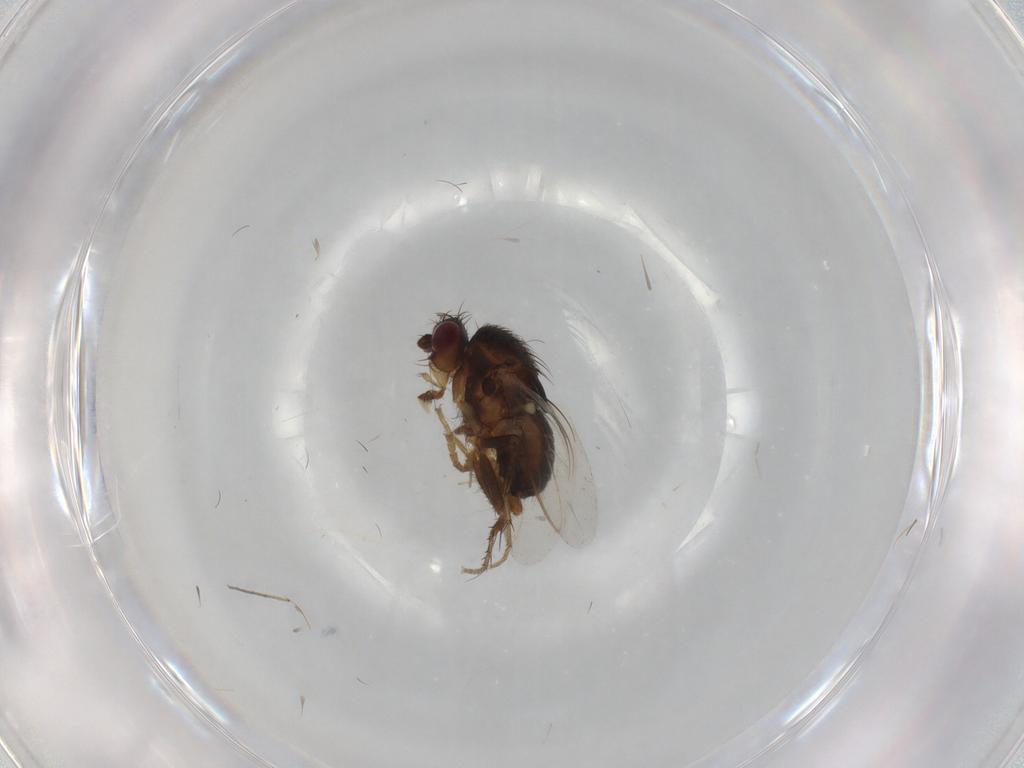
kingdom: Animalia
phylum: Arthropoda
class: Insecta
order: Diptera
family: Sphaeroceridae
